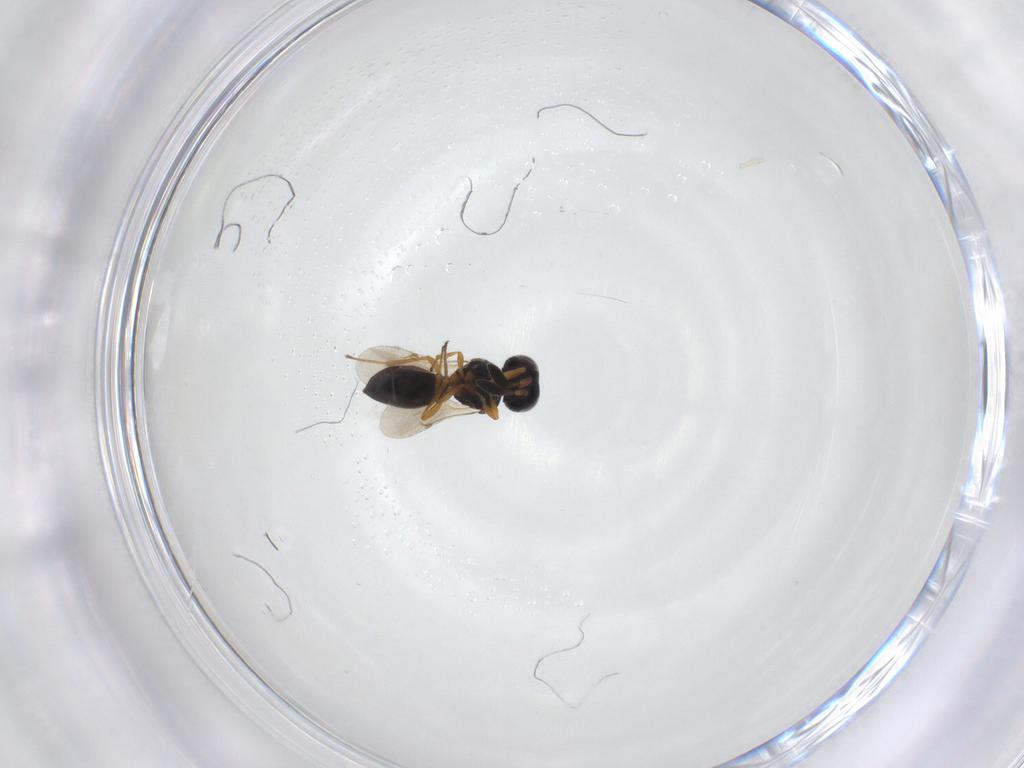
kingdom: Animalia
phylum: Arthropoda
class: Insecta
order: Hymenoptera
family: Scelionidae
